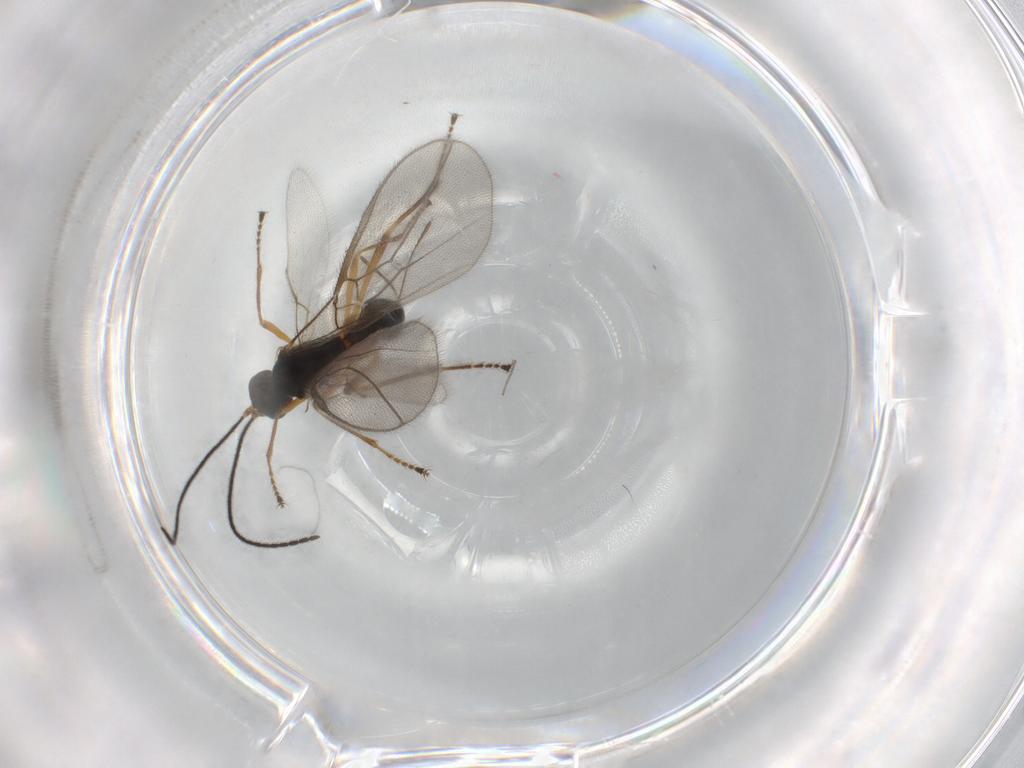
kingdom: Animalia
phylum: Arthropoda
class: Insecta
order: Hymenoptera
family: Braconidae
